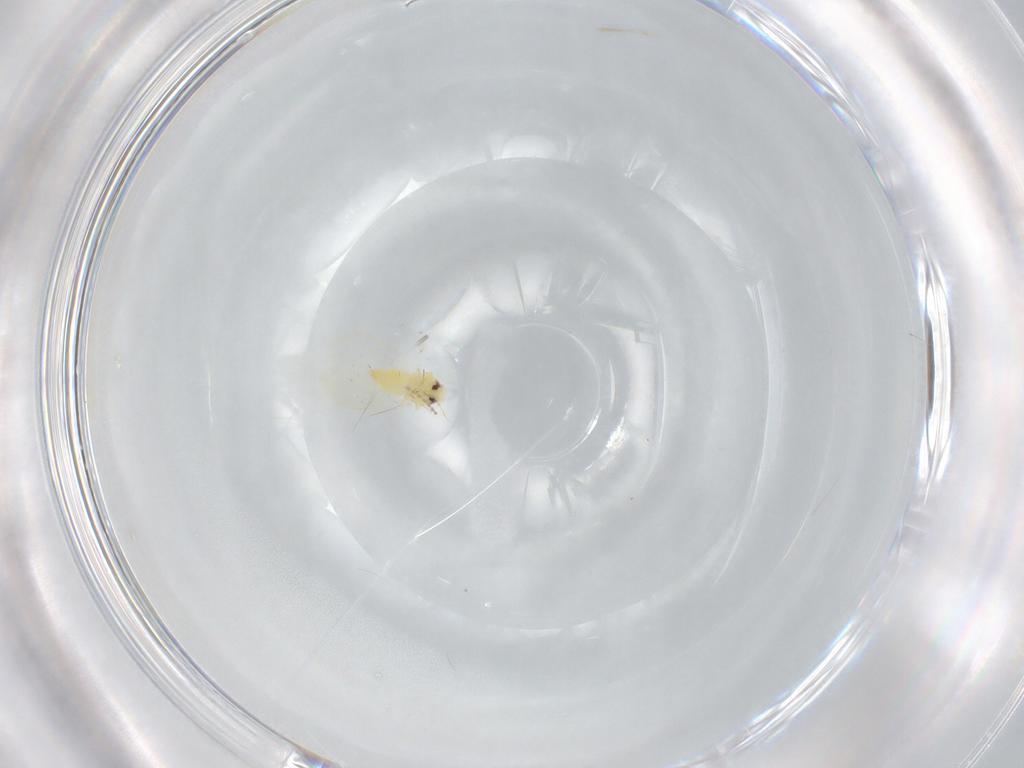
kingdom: Animalia
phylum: Arthropoda
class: Insecta
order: Hemiptera
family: Aleyrodidae
